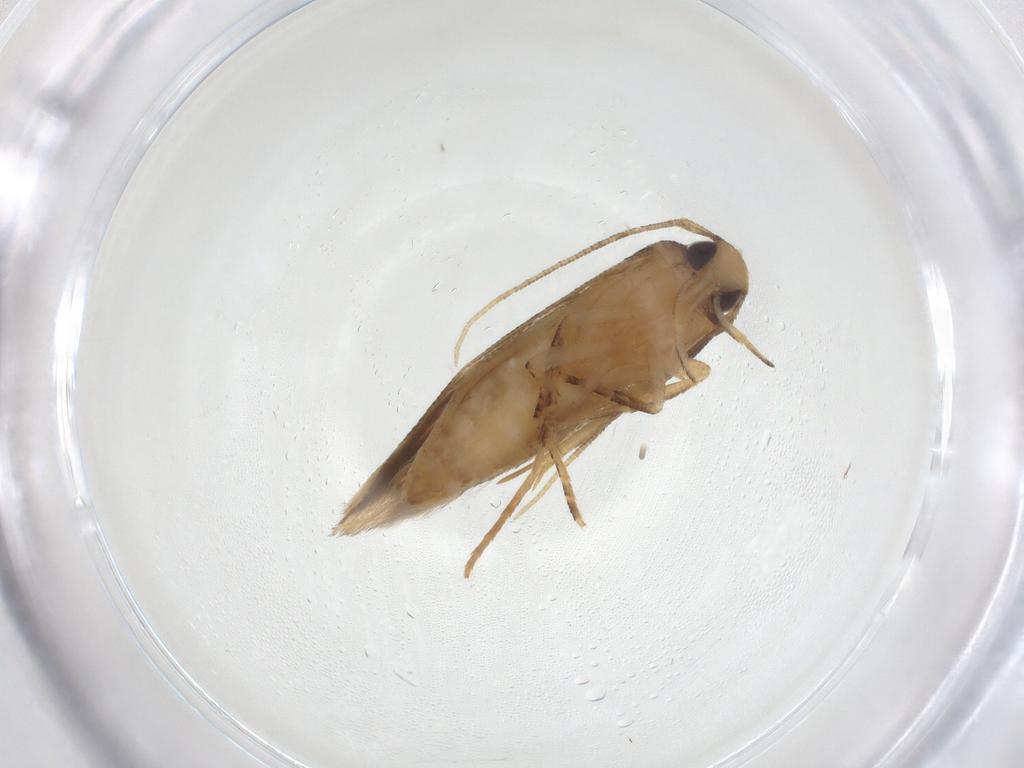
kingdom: Animalia
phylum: Arthropoda
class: Insecta
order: Lepidoptera
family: Cosmopterigidae
